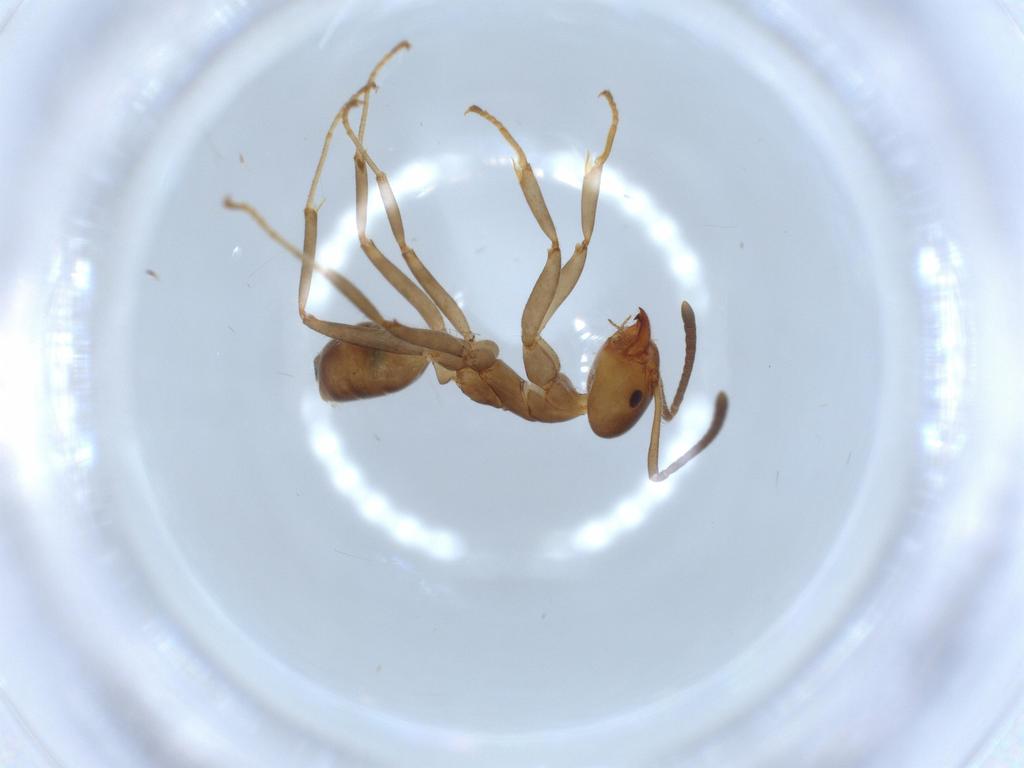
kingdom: Animalia
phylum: Arthropoda
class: Insecta
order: Hymenoptera
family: Formicidae
